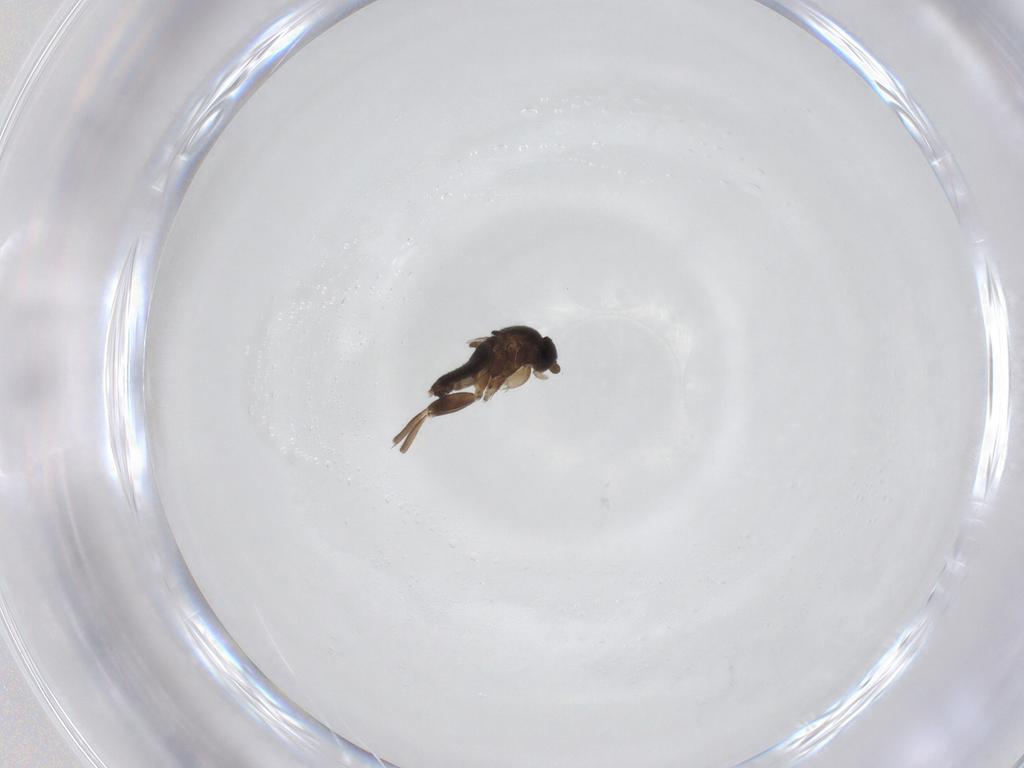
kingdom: Animalia
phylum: Arthropoda
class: Insecta
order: Diptera
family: Phoridae
